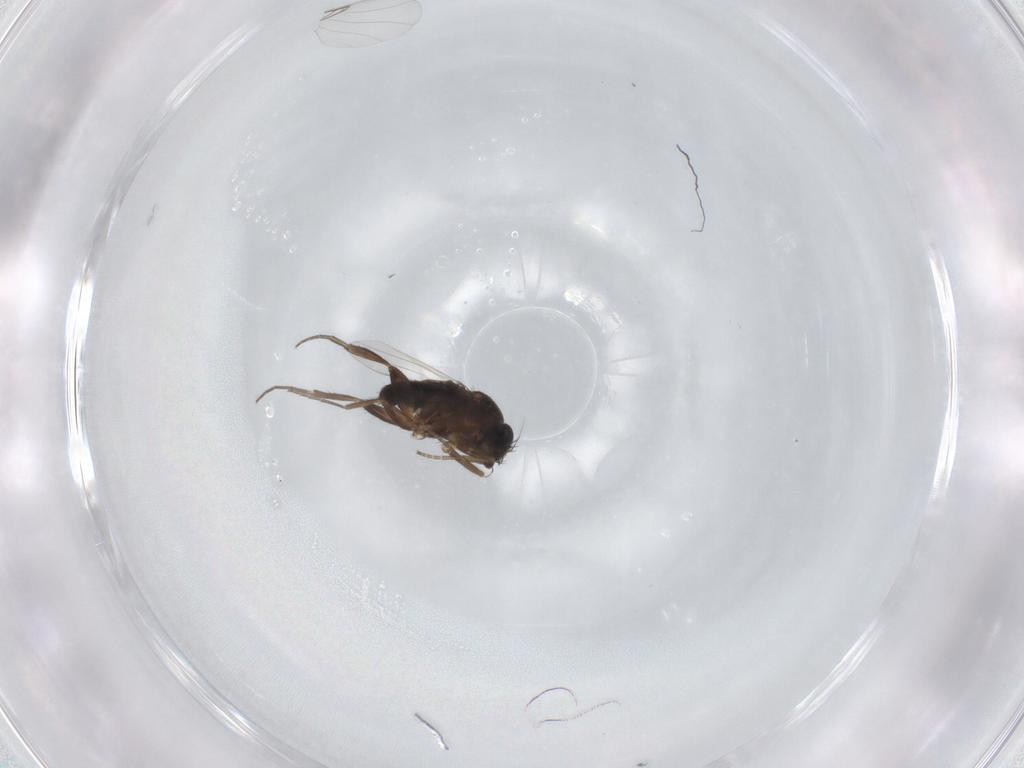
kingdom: Animalia
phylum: Arthropoda
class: Insecta
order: Diptera
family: Phoridae
